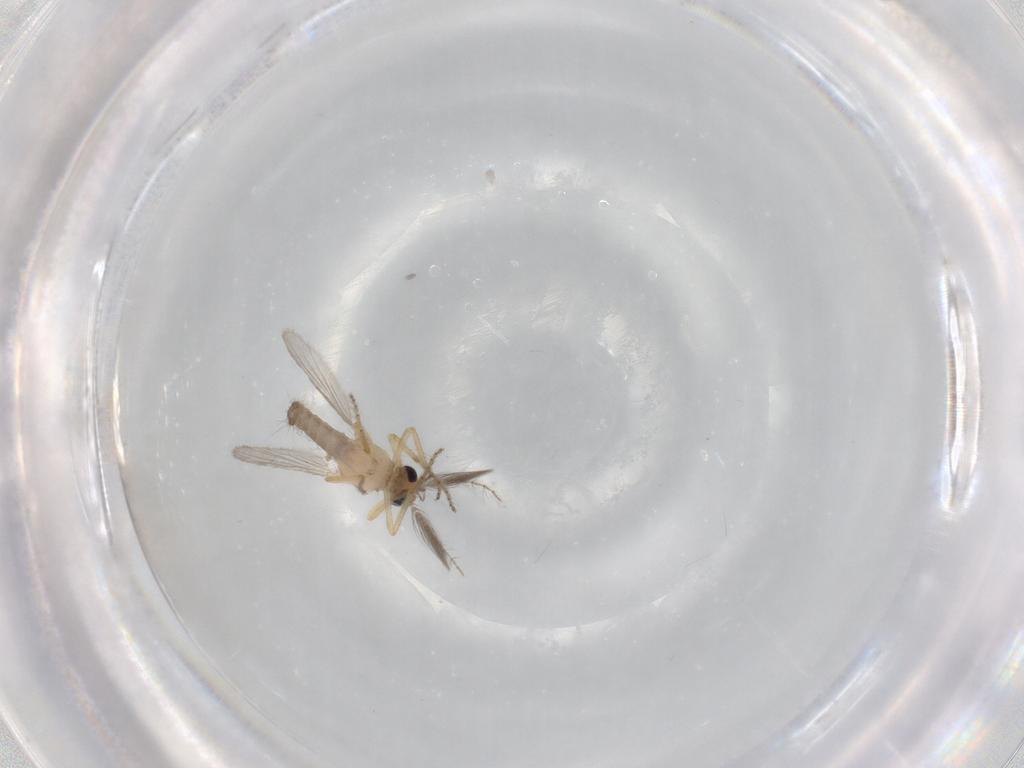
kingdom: Animalia
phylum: Arthropoda
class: Insecta
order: Diptera
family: Ceratopogonidae
